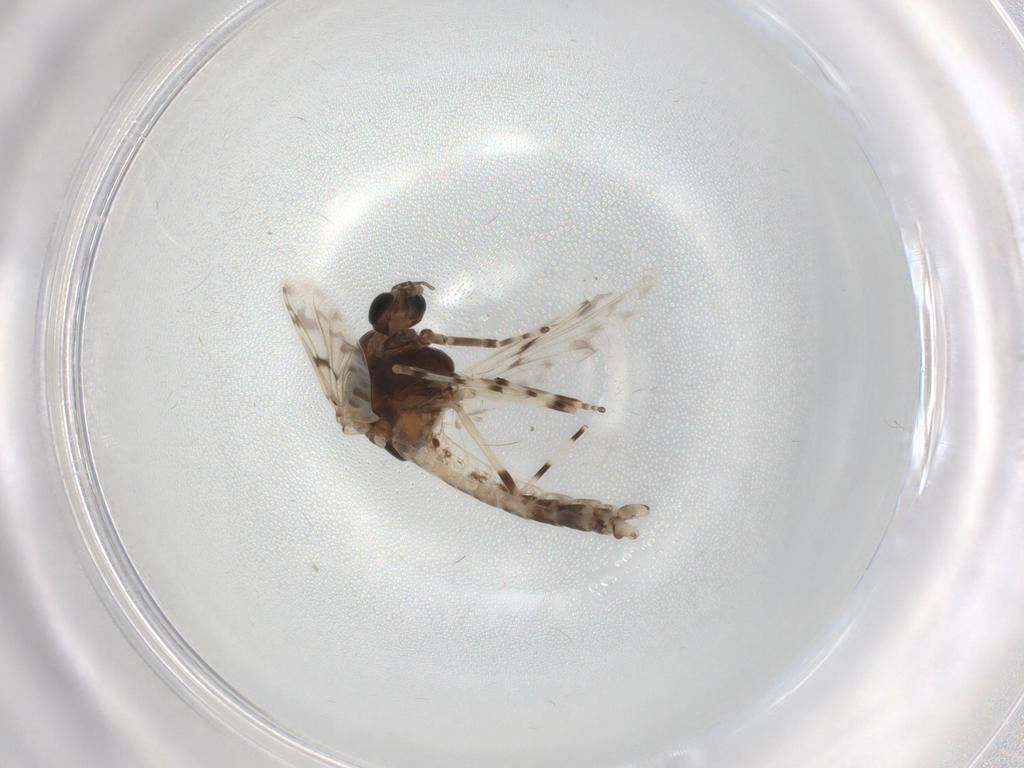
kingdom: Animalia
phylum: Arthropoda
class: Insecta
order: Diptera
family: Chironomidae
